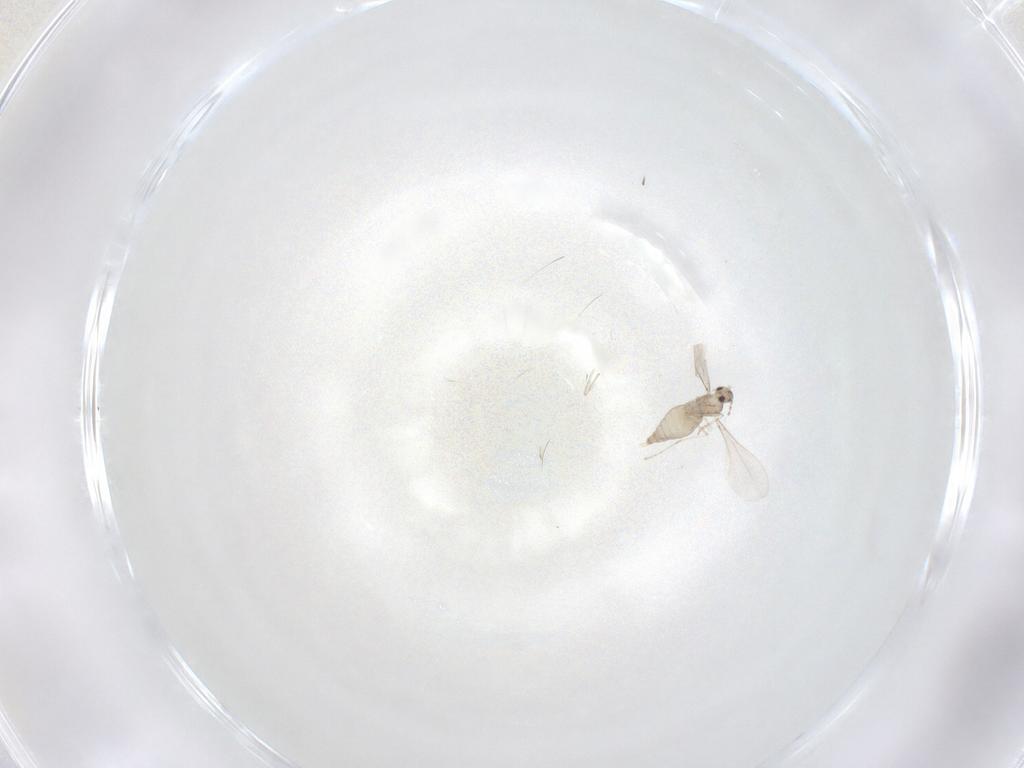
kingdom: Animalia
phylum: Arthropoda
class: Insecta
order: Diptera
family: Cecidomyiidae
